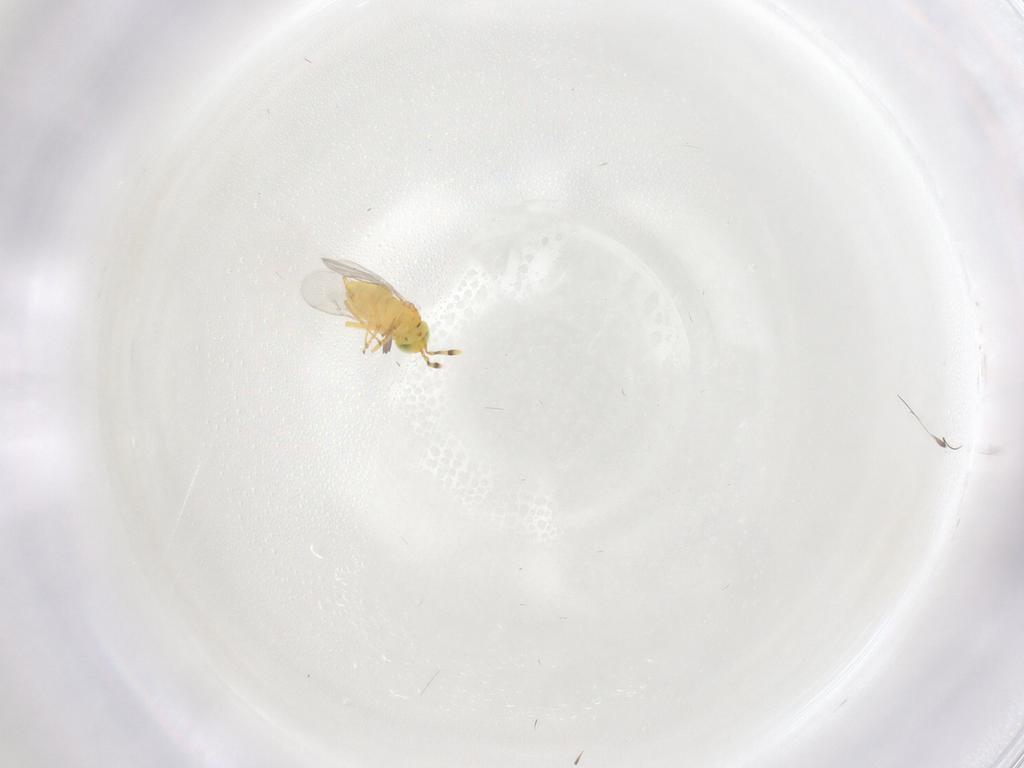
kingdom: Animalia
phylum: Arthropoda
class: Insecta
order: Hymenoptera
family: Encyrtidae
